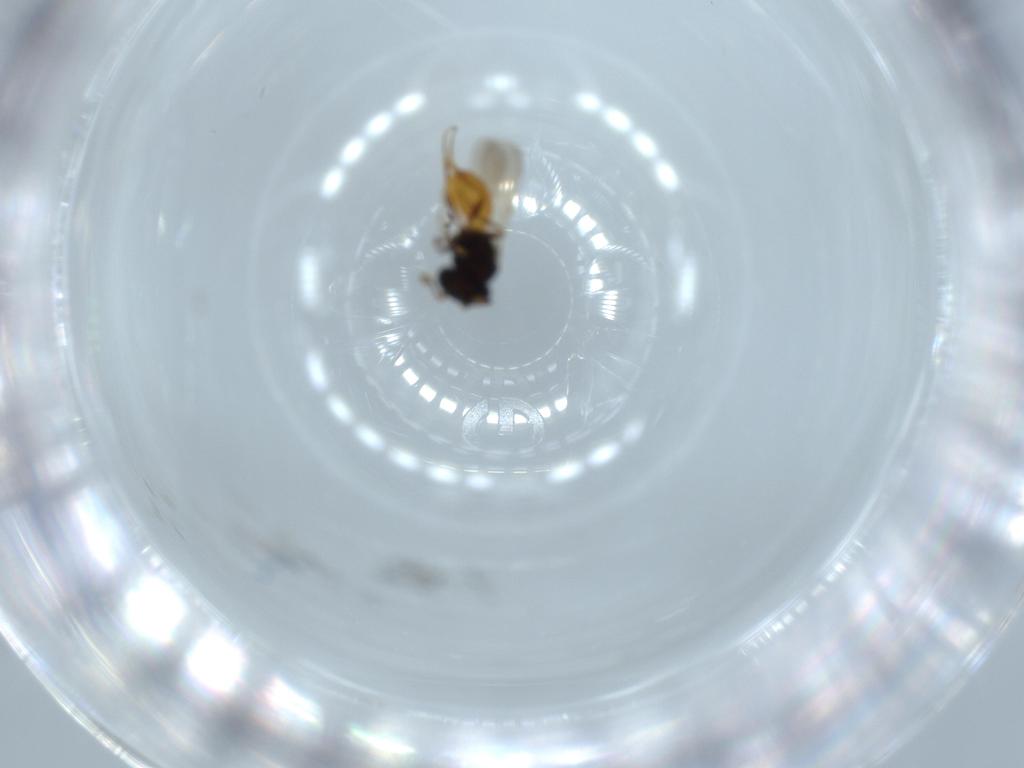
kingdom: Animalia
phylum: Arthropoda
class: Insecta
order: Hymenoptera
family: Scelionidae
